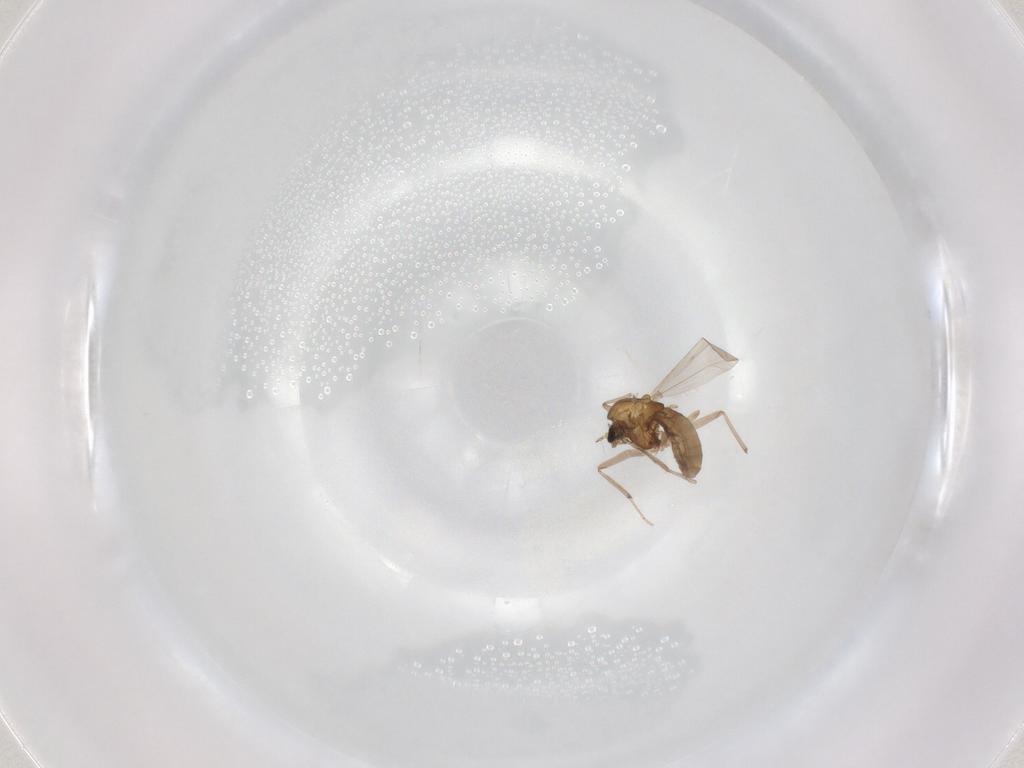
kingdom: Animalia
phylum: Arthropoda
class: Insecta
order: Diptera
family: Chironomidae
